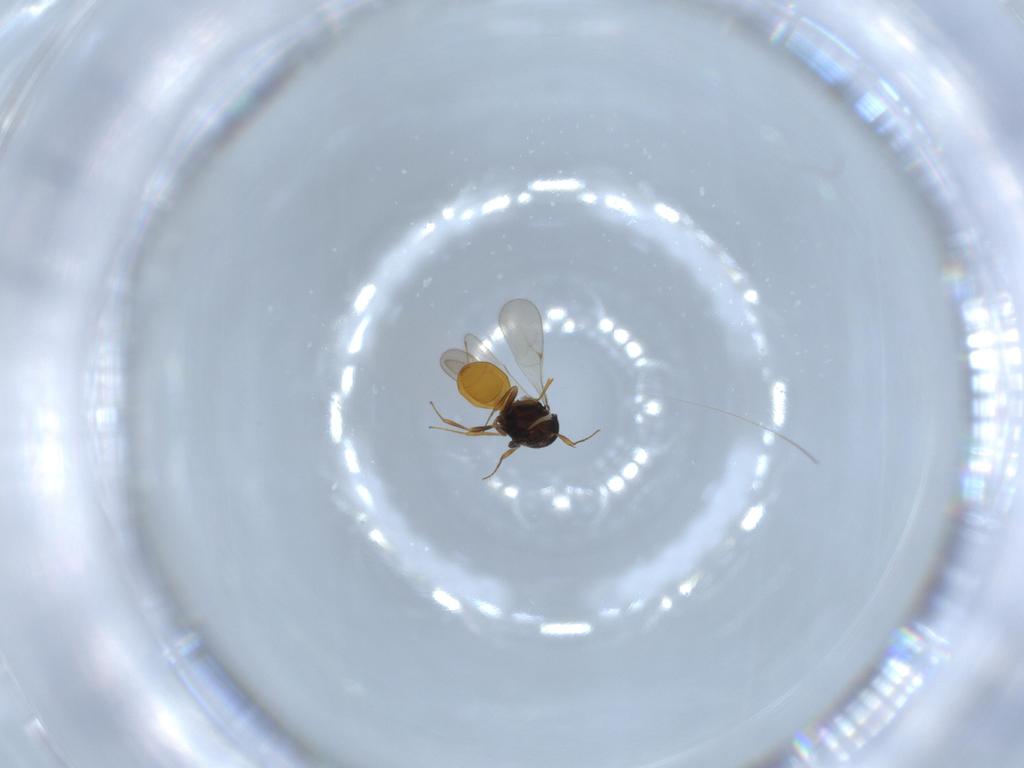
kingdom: Animalia
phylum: Arthropoda
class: Insecta
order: Hymenoptera
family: Scelionidae
